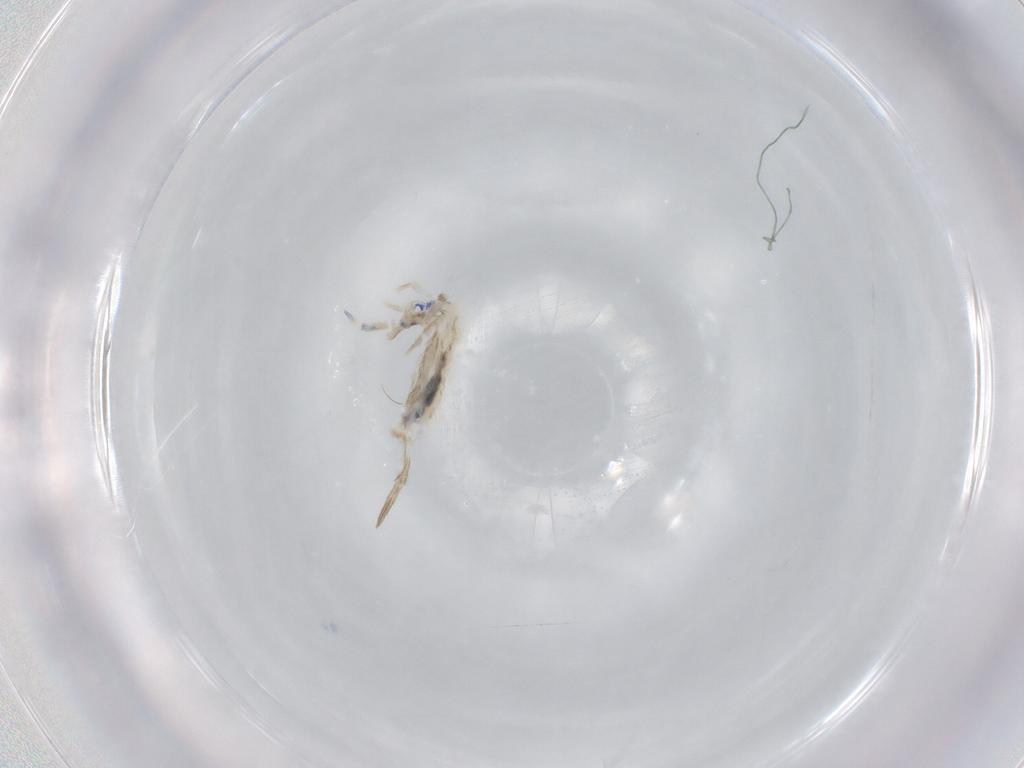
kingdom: Animalia
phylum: Arthropoda
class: Collembola
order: Entomobryomorpha
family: Entomobryidae
